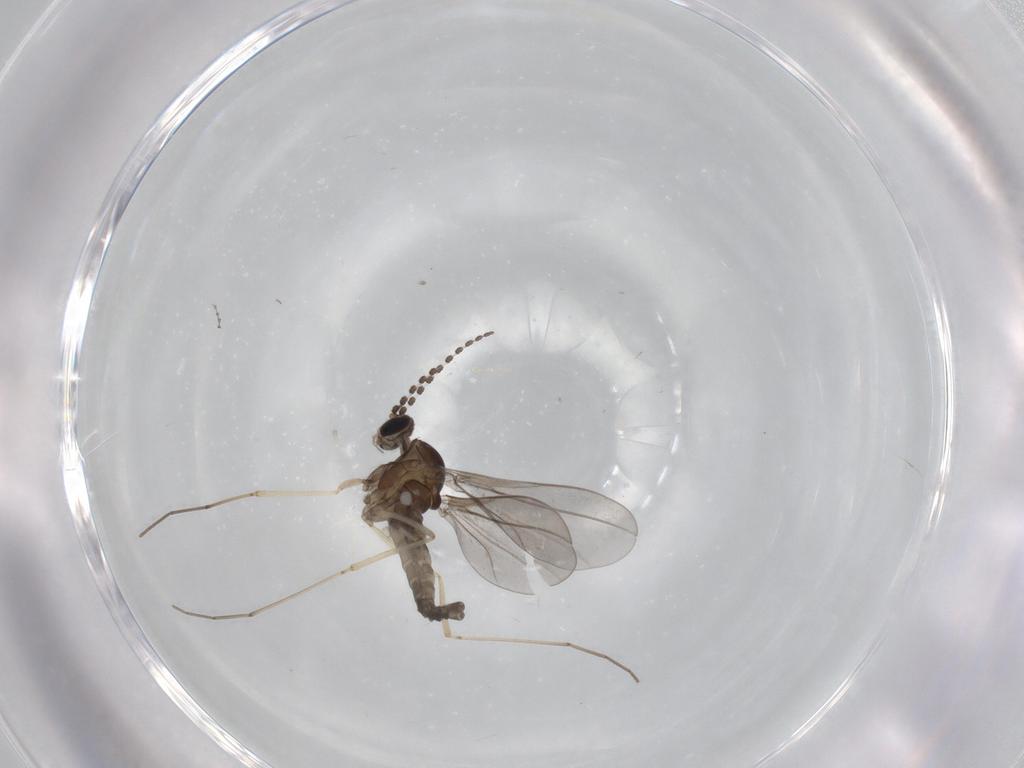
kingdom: Animalia
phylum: Arthropoda
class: Insecta
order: Diptera
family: Cecidomyiidae
